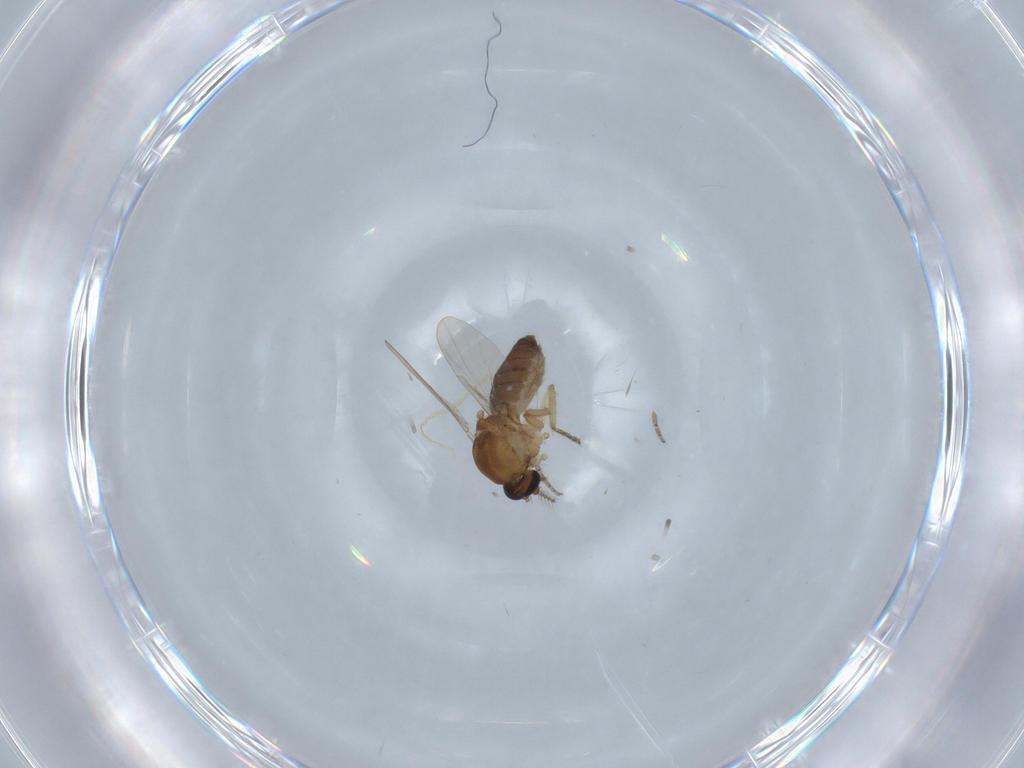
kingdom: Animalia
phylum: Arthropoda
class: Insecta
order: Diptera
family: Ceratopogonidae
